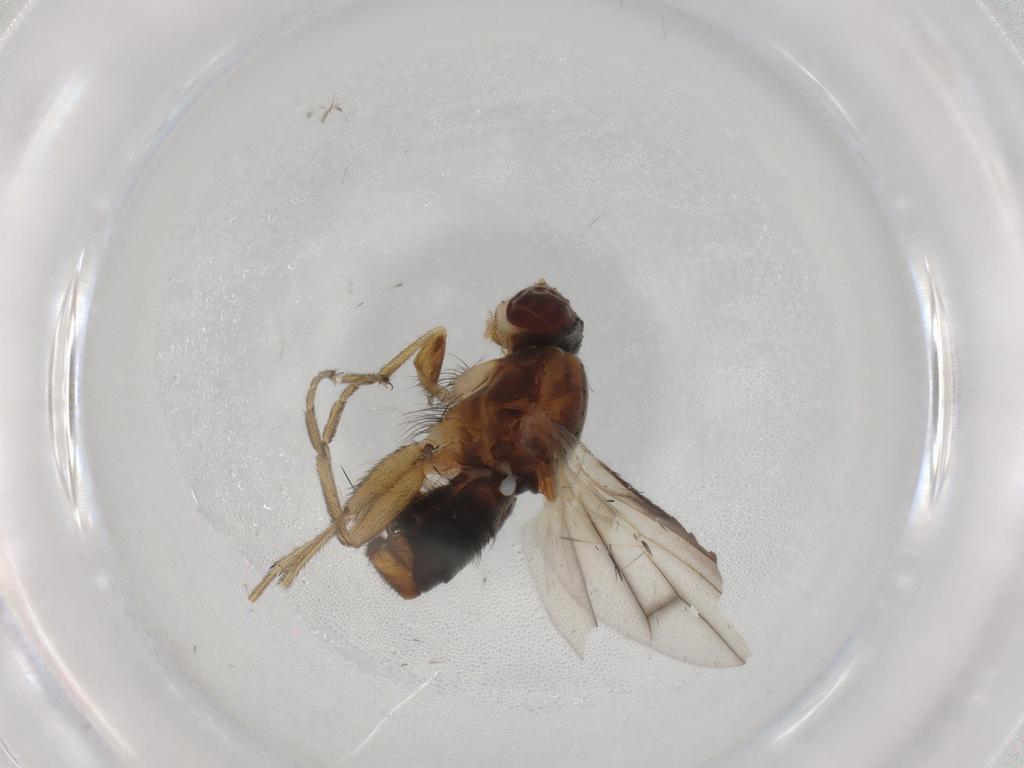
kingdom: Animalia
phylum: Arthropoda
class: Insecta
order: Diptera
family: Heleomyzidae
